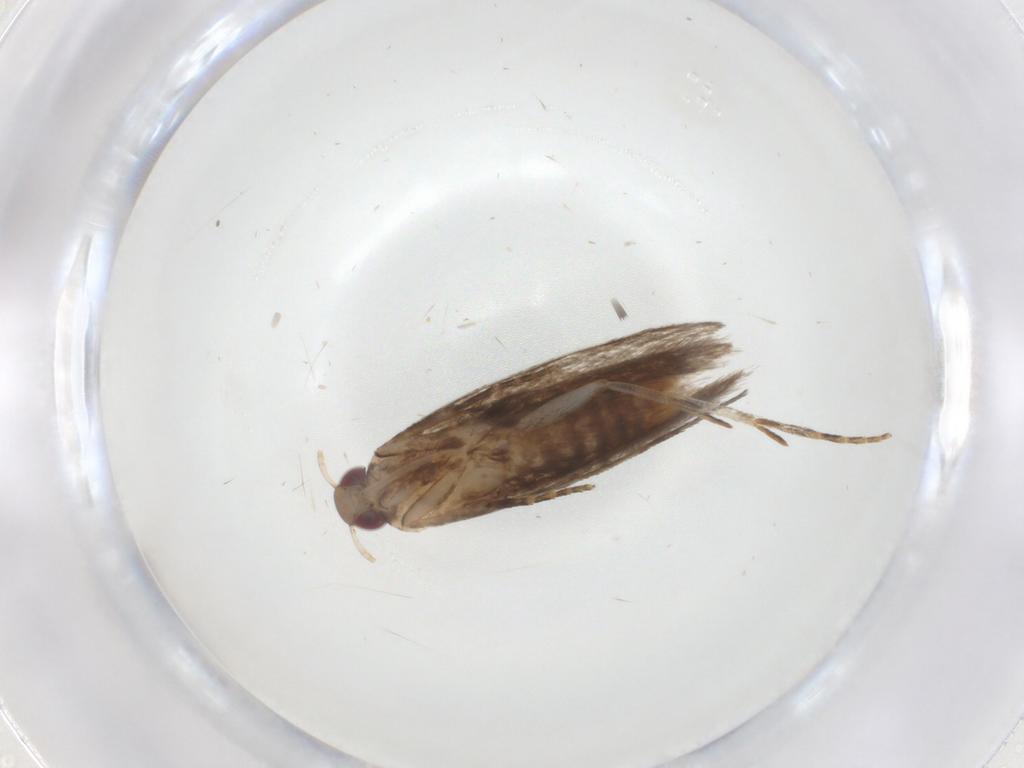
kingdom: Animalia
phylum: Arthropoda
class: Insecta
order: Lepidoptera
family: Gelechiidae
